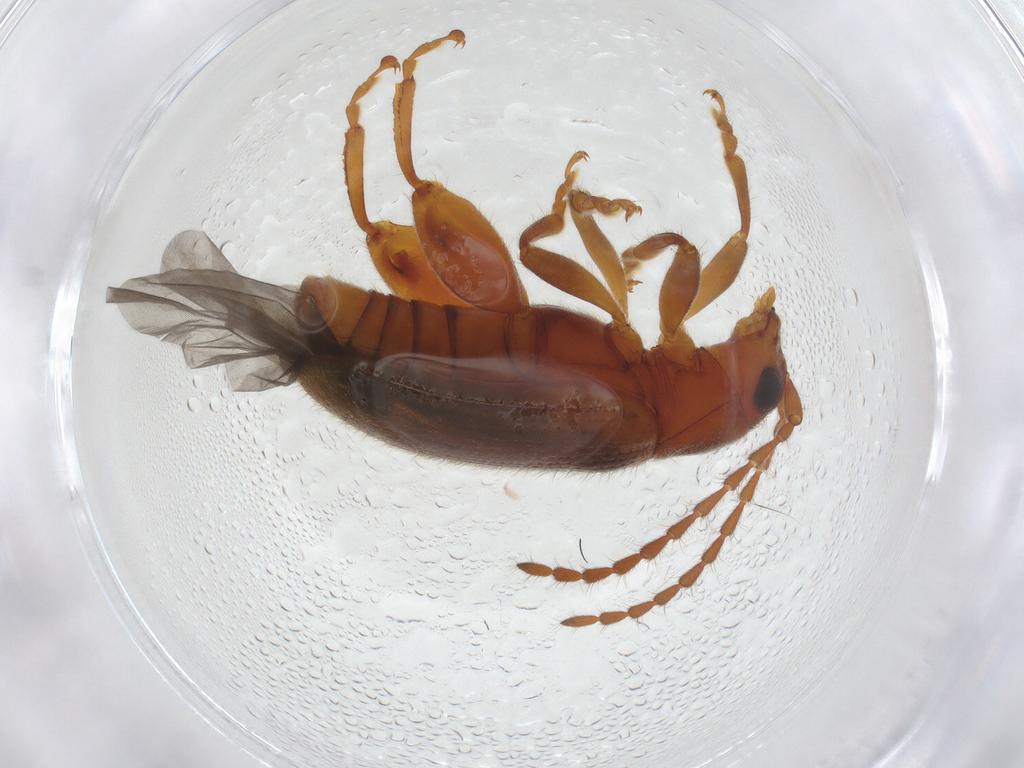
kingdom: Animalia
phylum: Arthropoda
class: Insecta
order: Coleoptera
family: Chrysomelidae
